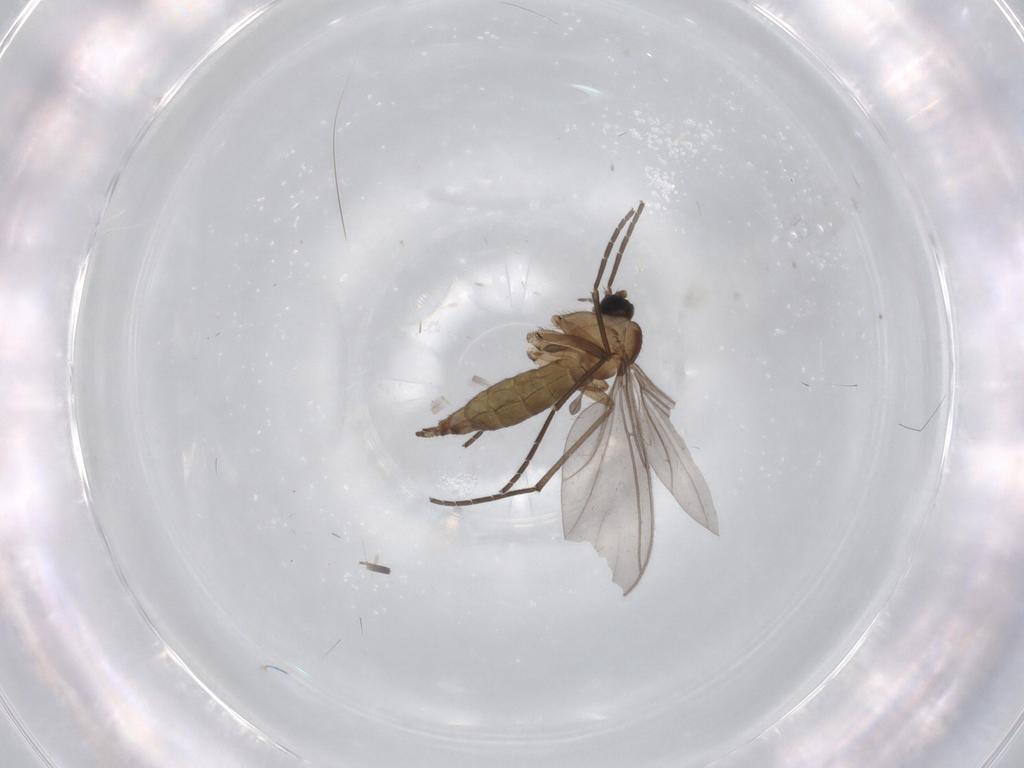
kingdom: Animalia
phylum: Arthropoda
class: Insecta
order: Diptera
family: Sciaridae
